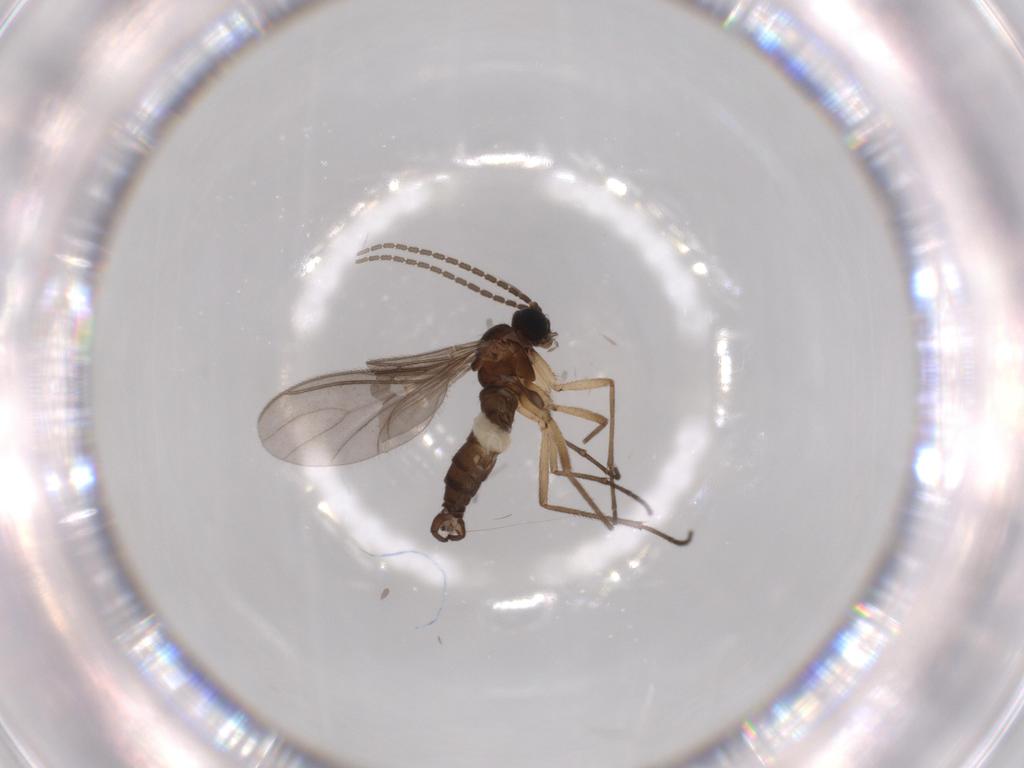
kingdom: Animalia
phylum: Arthropoda
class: Insecta
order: Diptera
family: Sciaridae
